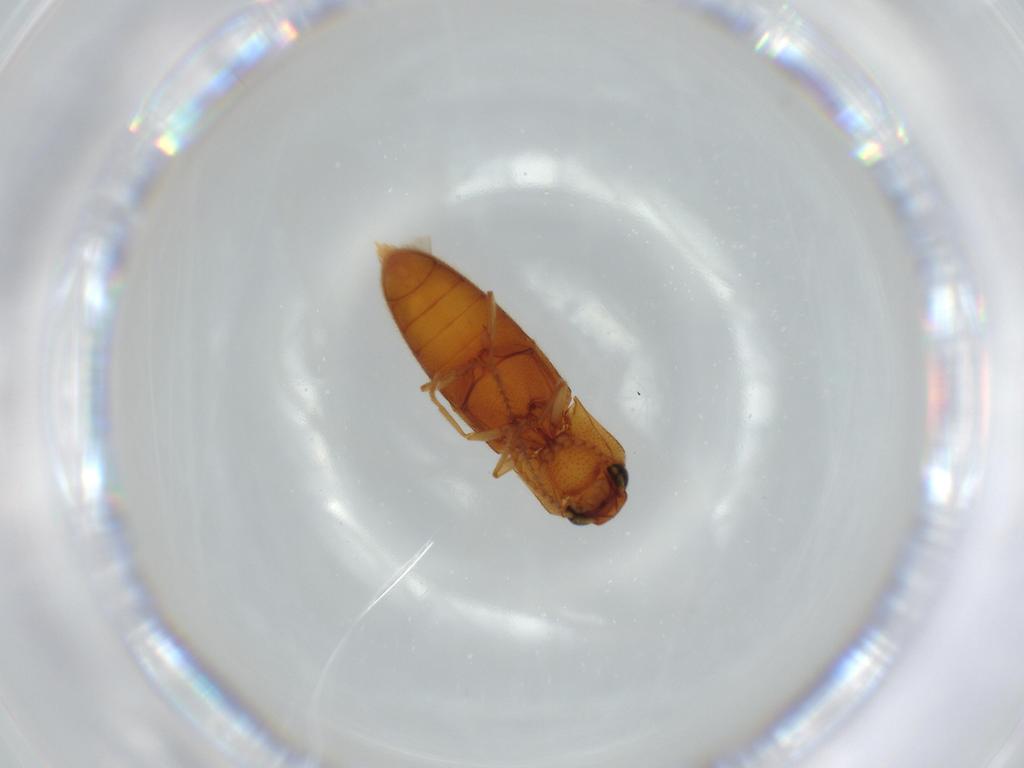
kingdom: Animalia
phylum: Arthropoda
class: Insecta
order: Coleoptera
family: Elateridae
